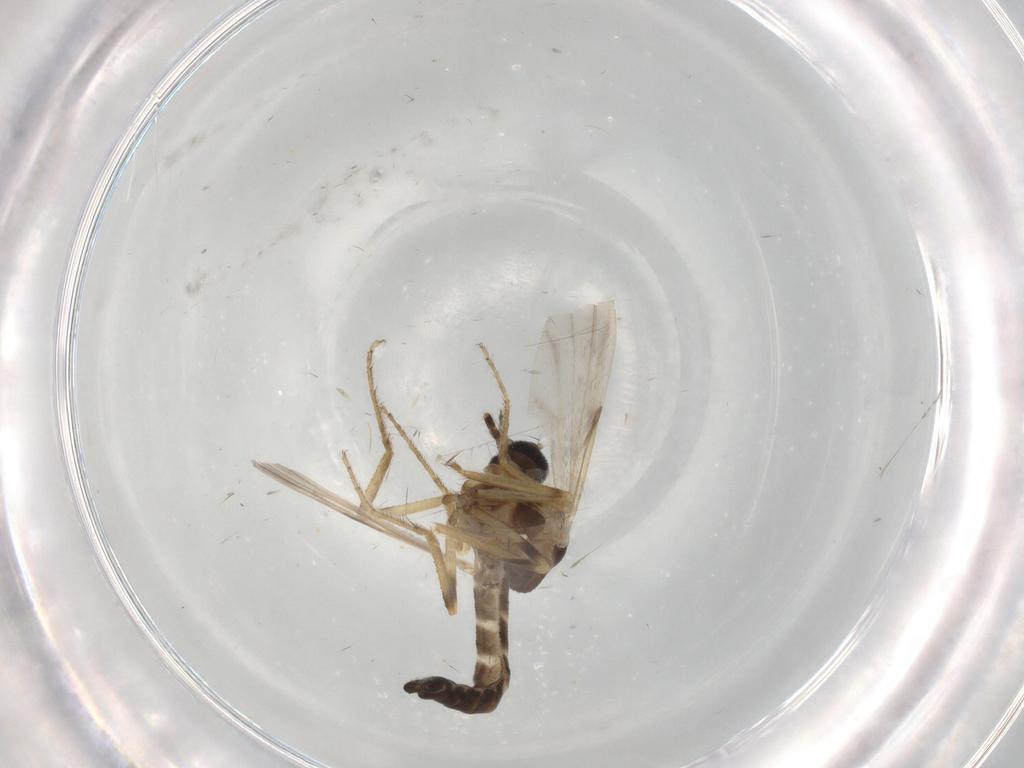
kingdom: Animalia
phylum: Arthropoda
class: Insecta
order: Diptera
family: Ceratopogonidae
